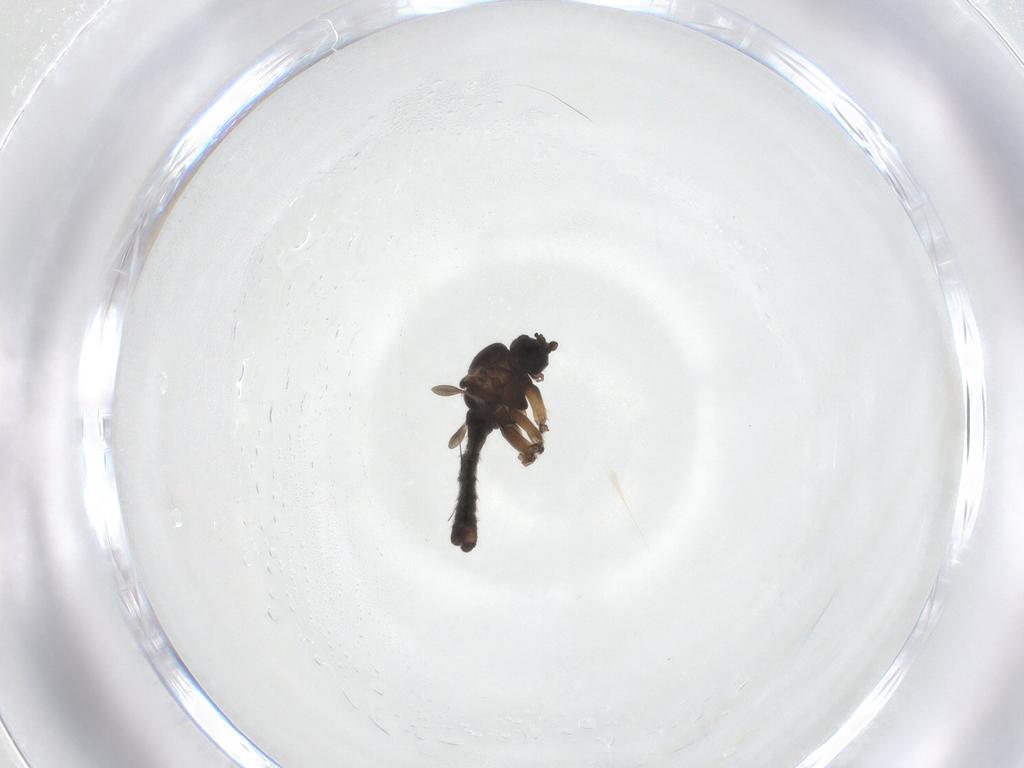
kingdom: Animalia
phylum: Arthropoda
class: Insecta
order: Diptera
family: Sciaridae
